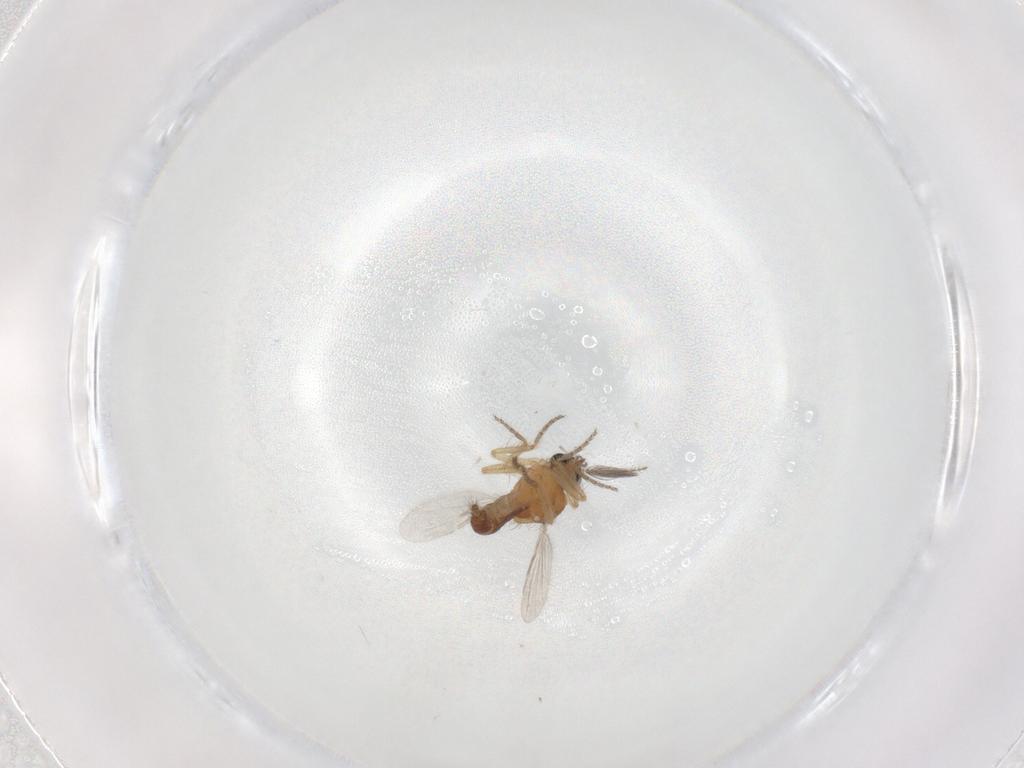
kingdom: Animalia
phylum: Arthropoda
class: Insecta
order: Diptera
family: Ceratopogonidae
